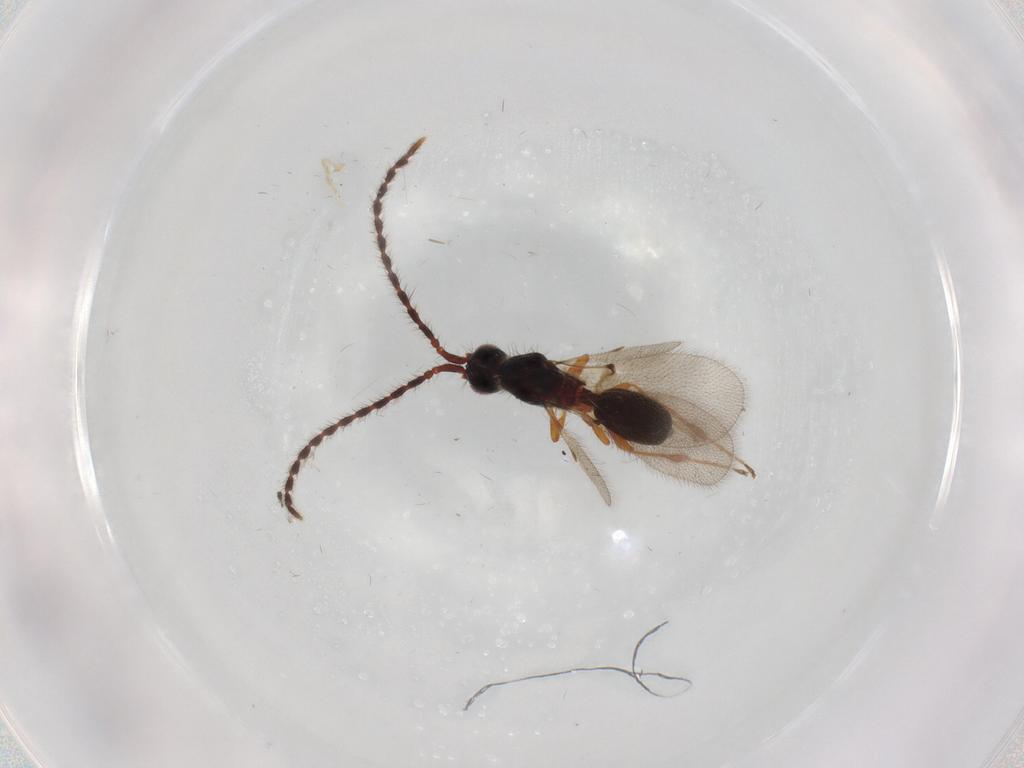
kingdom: Animalia
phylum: Arthropoda
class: Insecta
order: Hymenoptera
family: Diapriidae
